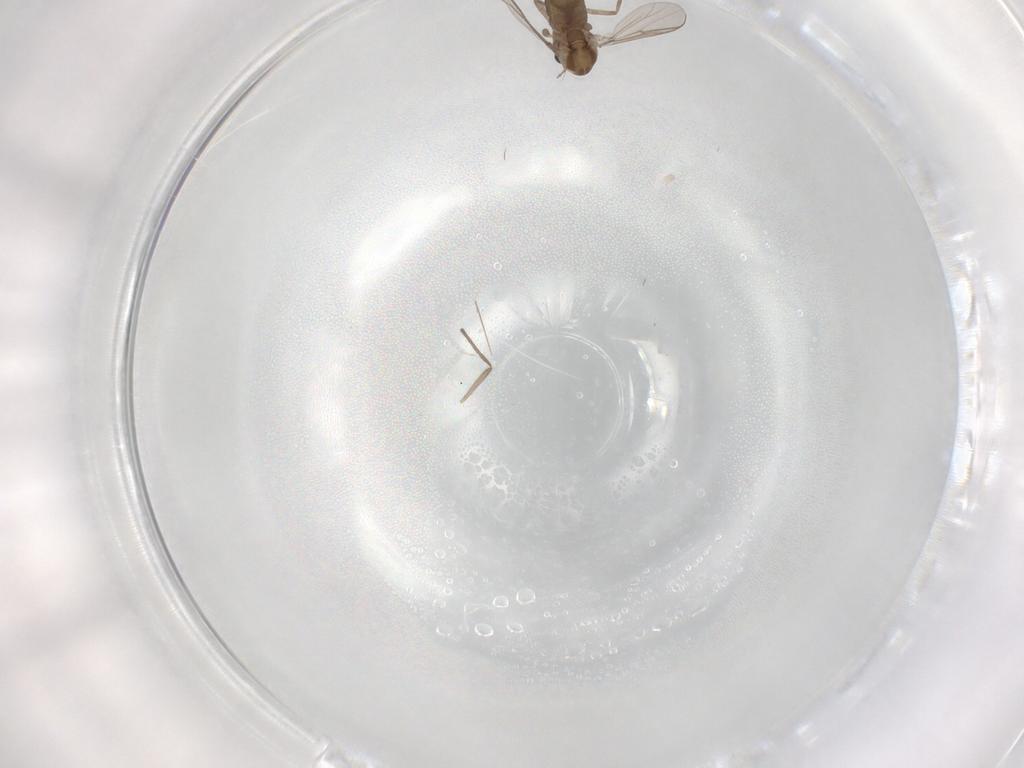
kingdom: Animalia
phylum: Arthropoda
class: Insecta
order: Diptera
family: Chironomidae
